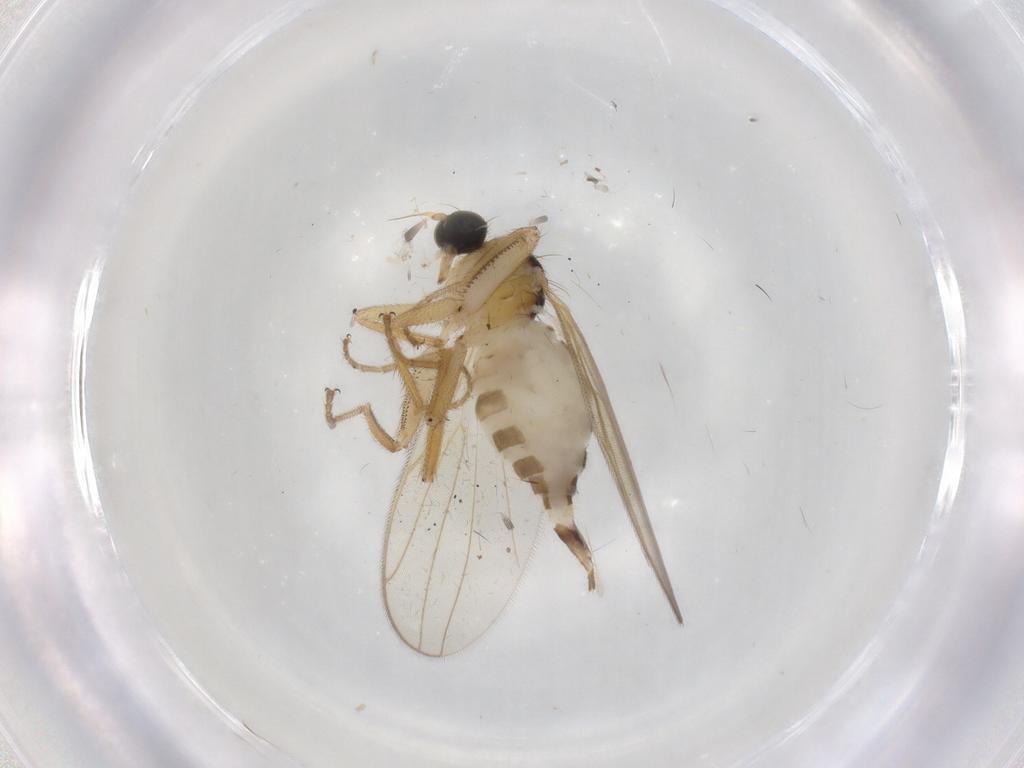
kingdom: Animalia
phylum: Arthropoda
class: Insecta
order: Diptera
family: Hybotidae
